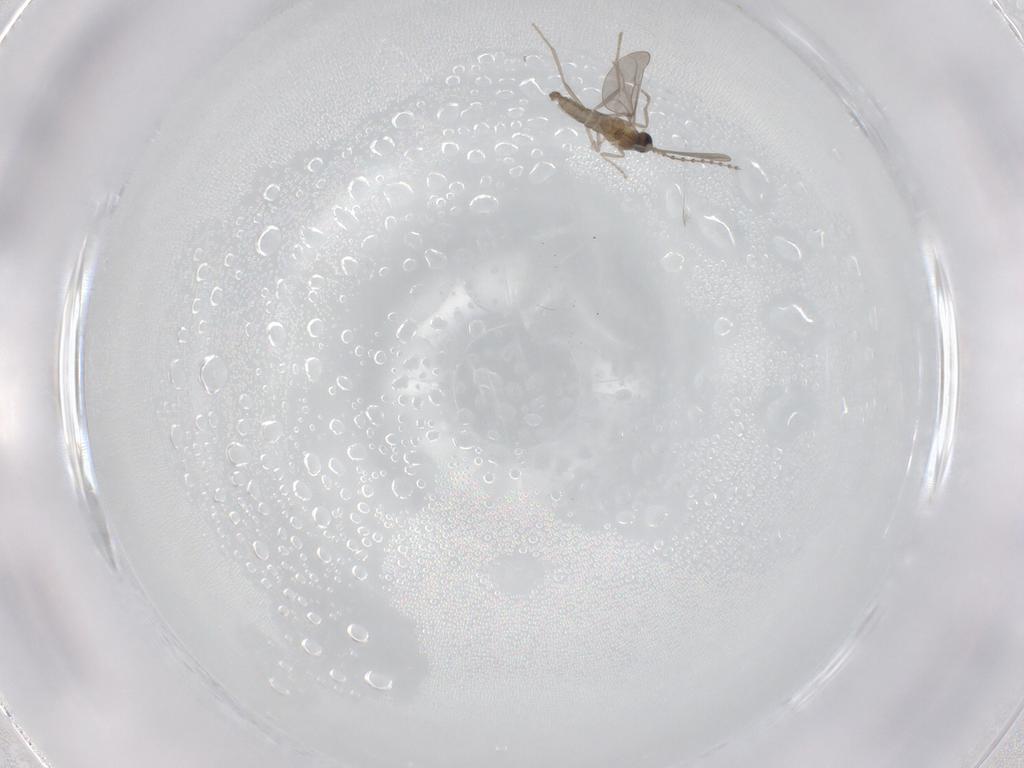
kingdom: Animalia
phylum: Arthropoda
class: Insecta
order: Diptera
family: Cecidomyiidae
